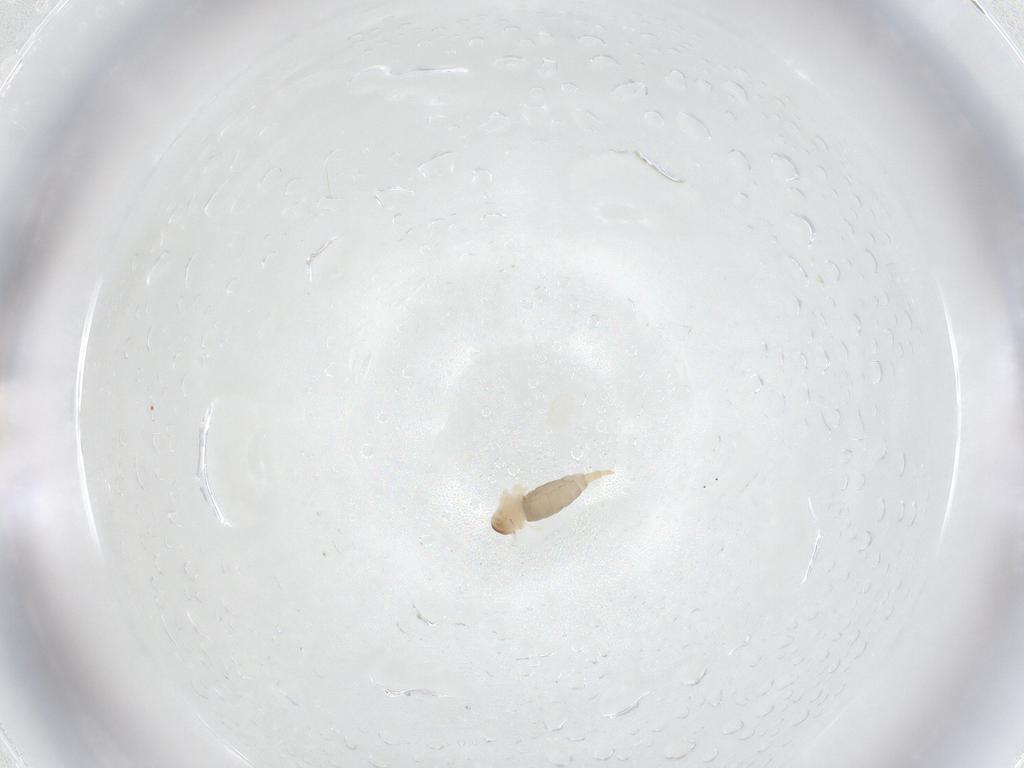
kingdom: Animalia
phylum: Arthropoda
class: Insecta
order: Diptera
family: Cecidomyiidae
